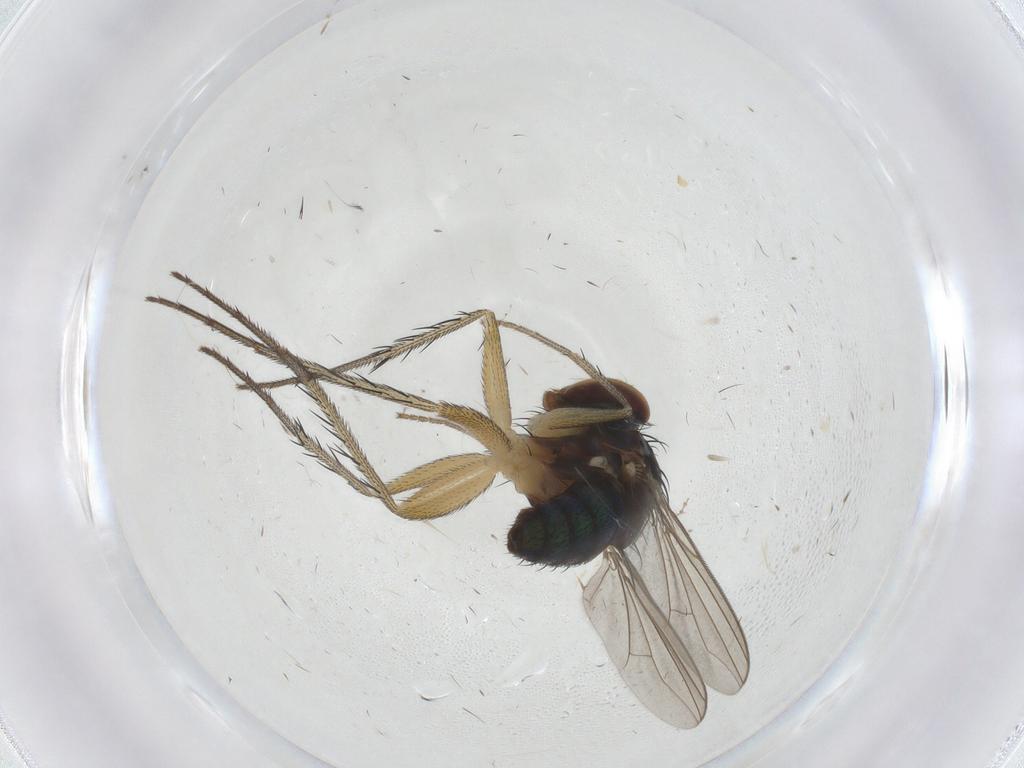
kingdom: Animalia
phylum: Arthropoda
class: Insecta
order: Diptera
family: Dolichopodidae
